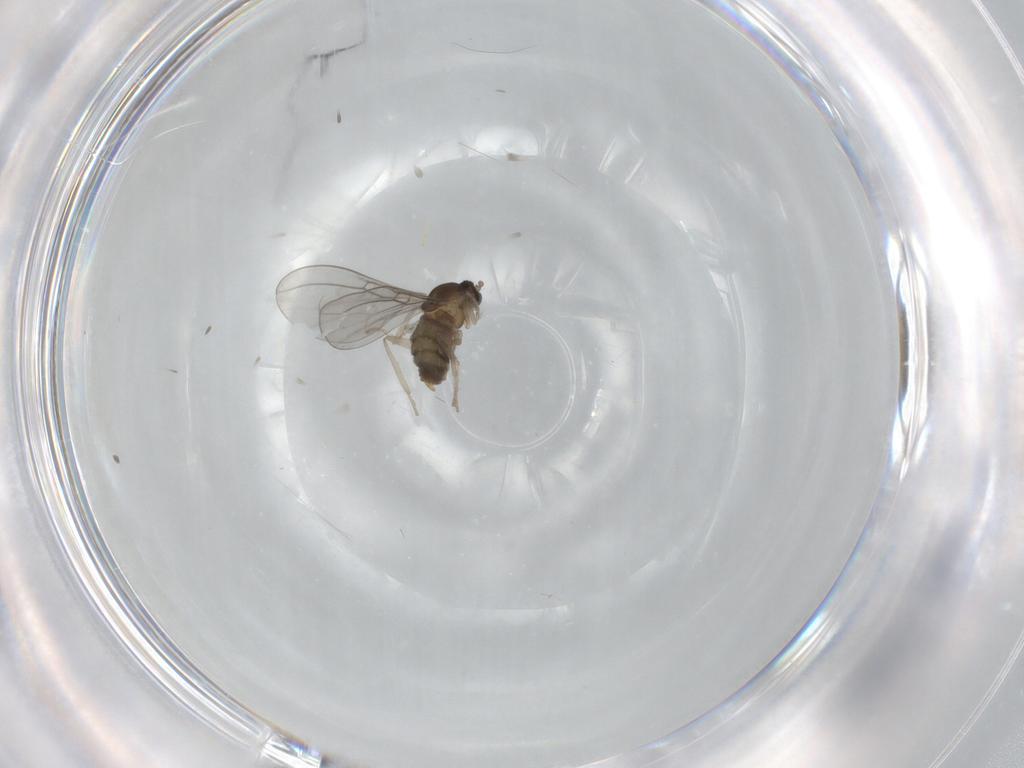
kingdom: Animalia
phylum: Arthropoda
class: Insecta
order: Diptera
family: Cecidomyiidae
